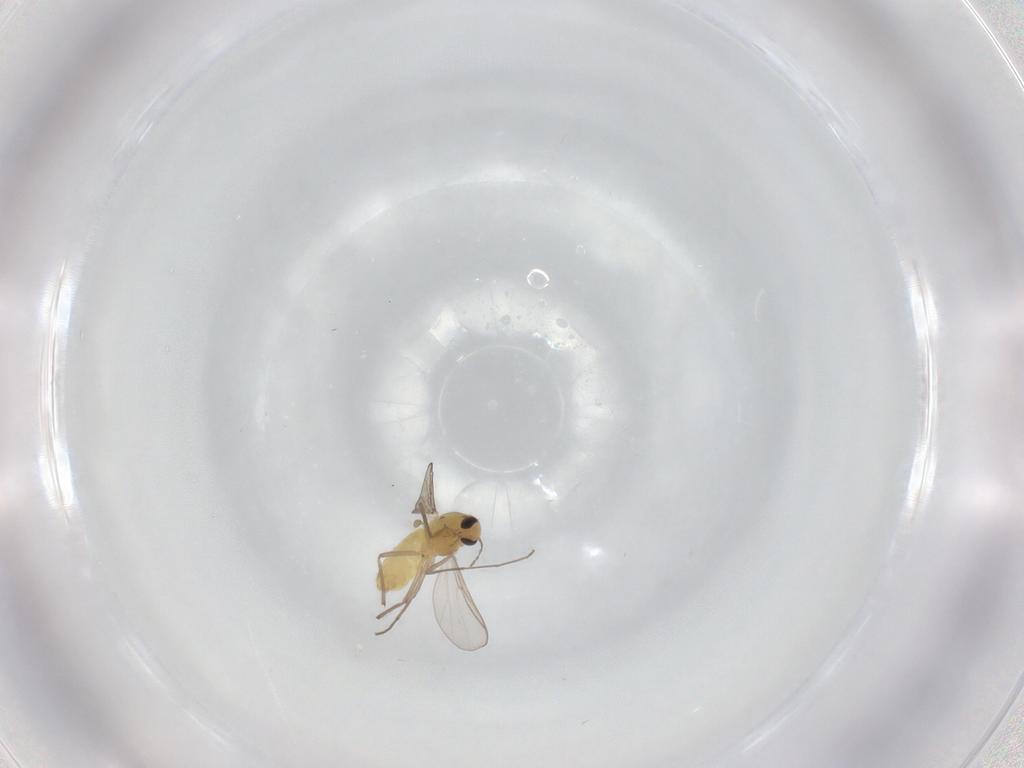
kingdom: Animalia
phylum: Arthropoda
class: Insecta
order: Diptera
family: Chironomidae
